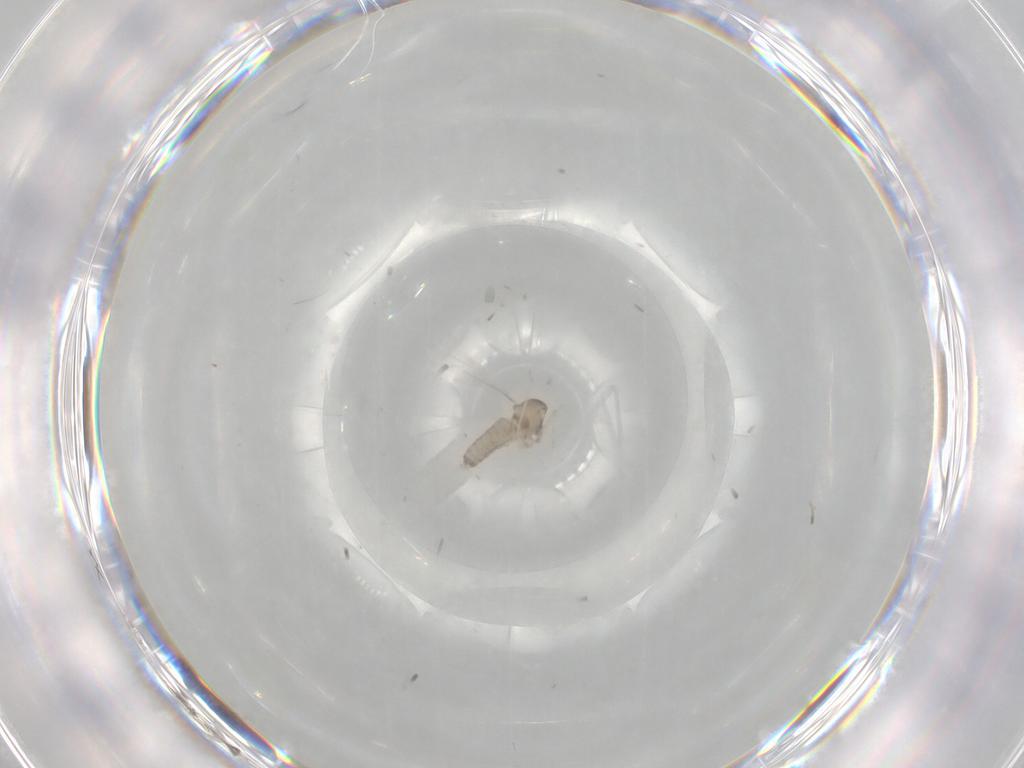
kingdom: Animalia
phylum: Arthropoda
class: Insecta
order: Diptera
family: Cecidomyiidae
